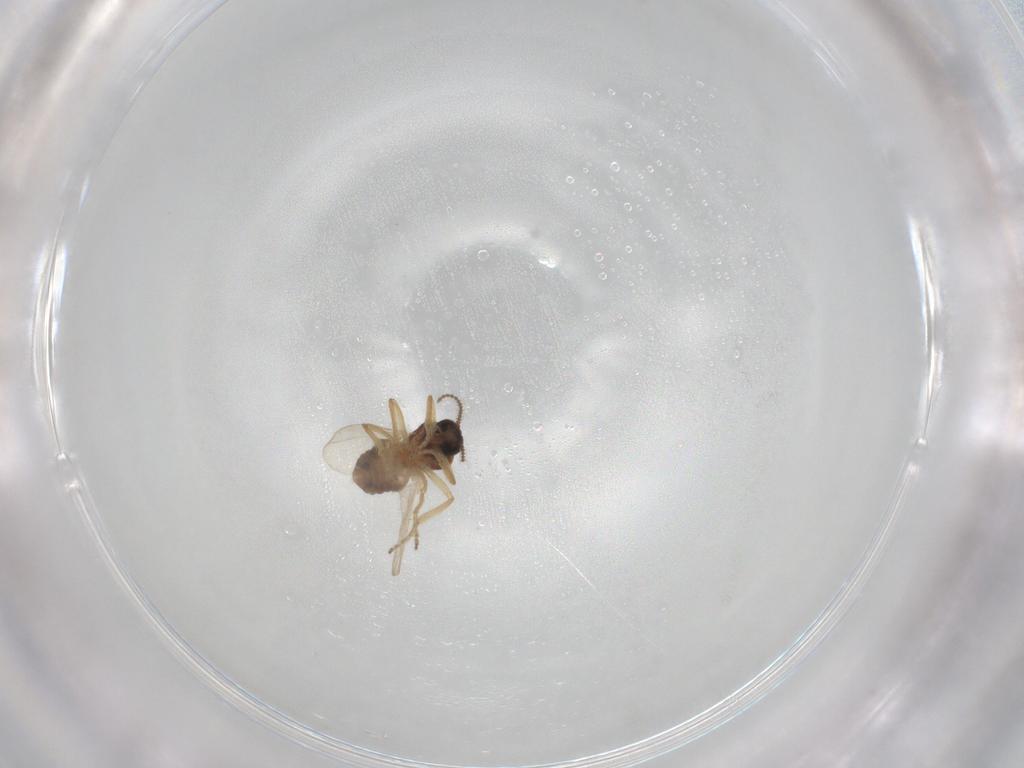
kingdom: Animalia
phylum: Arthropoda
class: Insecta
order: Diptera
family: Ceratopogonidae
